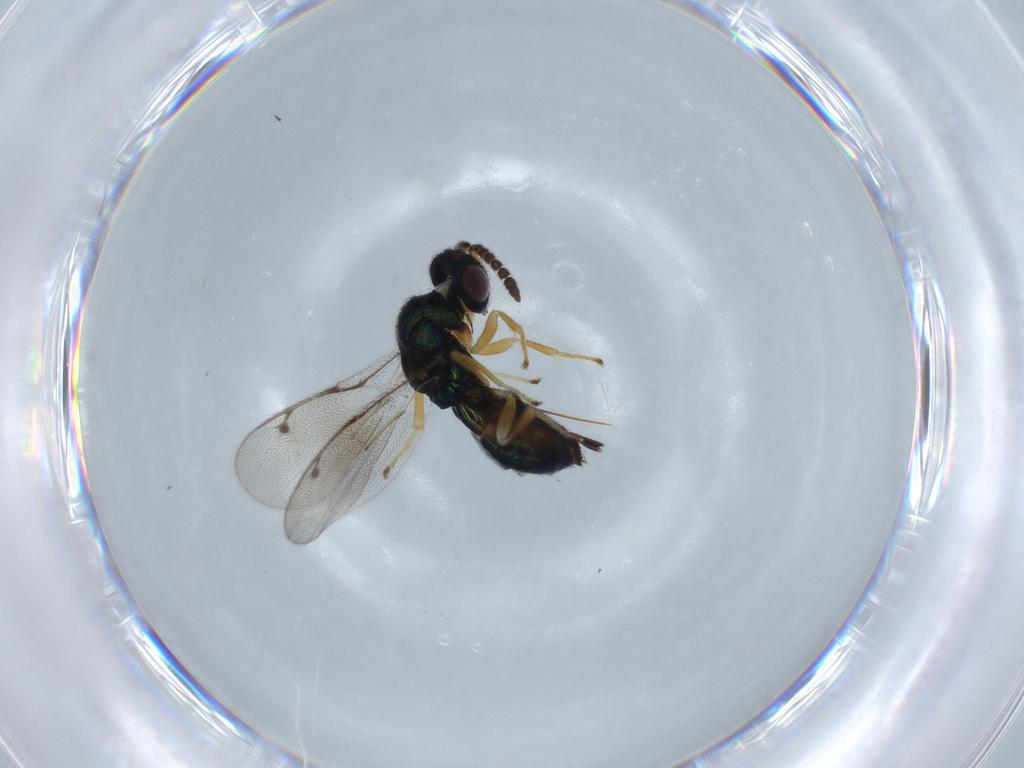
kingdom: Animalia
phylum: Arthropoda
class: Insecta
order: Hymenoptera
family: Pirenidae
